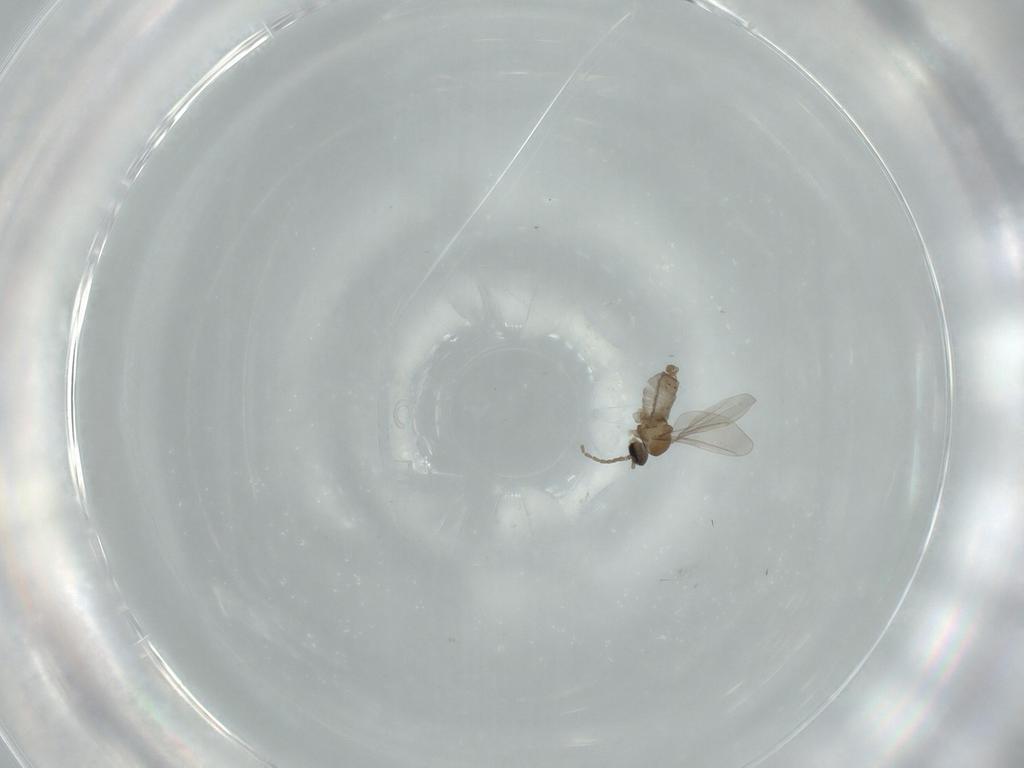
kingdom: Animalia
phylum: Arthropoda
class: Insecta
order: Diptera
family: Cecidomyiidae
